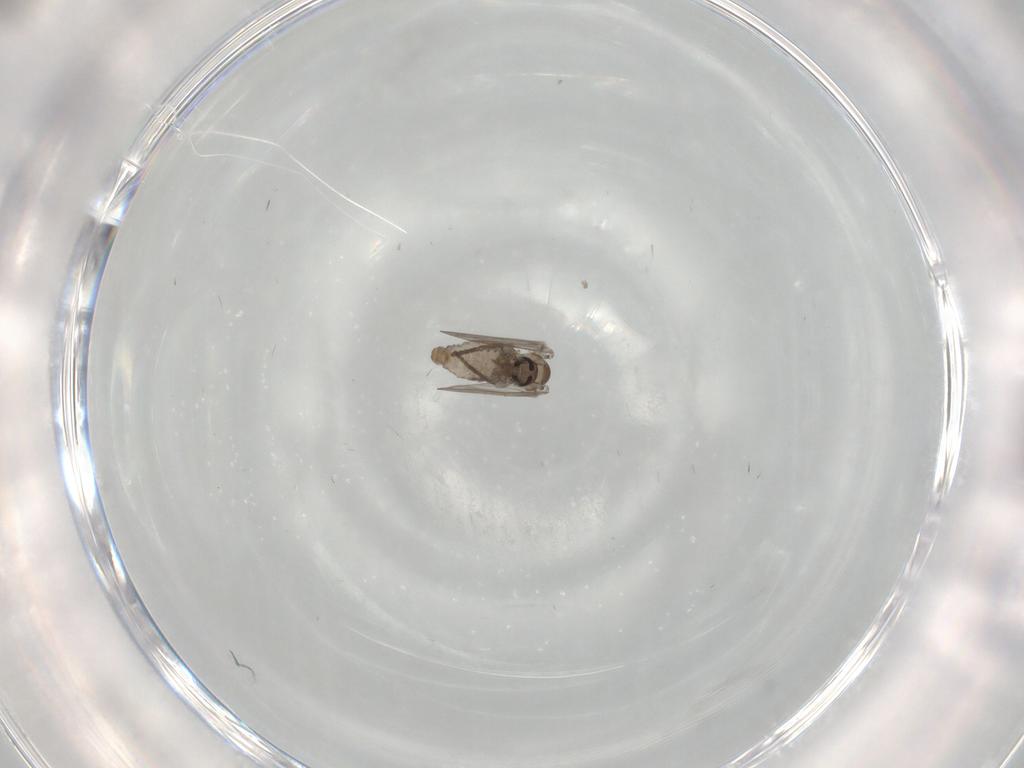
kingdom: Animalia
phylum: Arthropoda
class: Insecta
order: Diptera
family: Psychodidae
